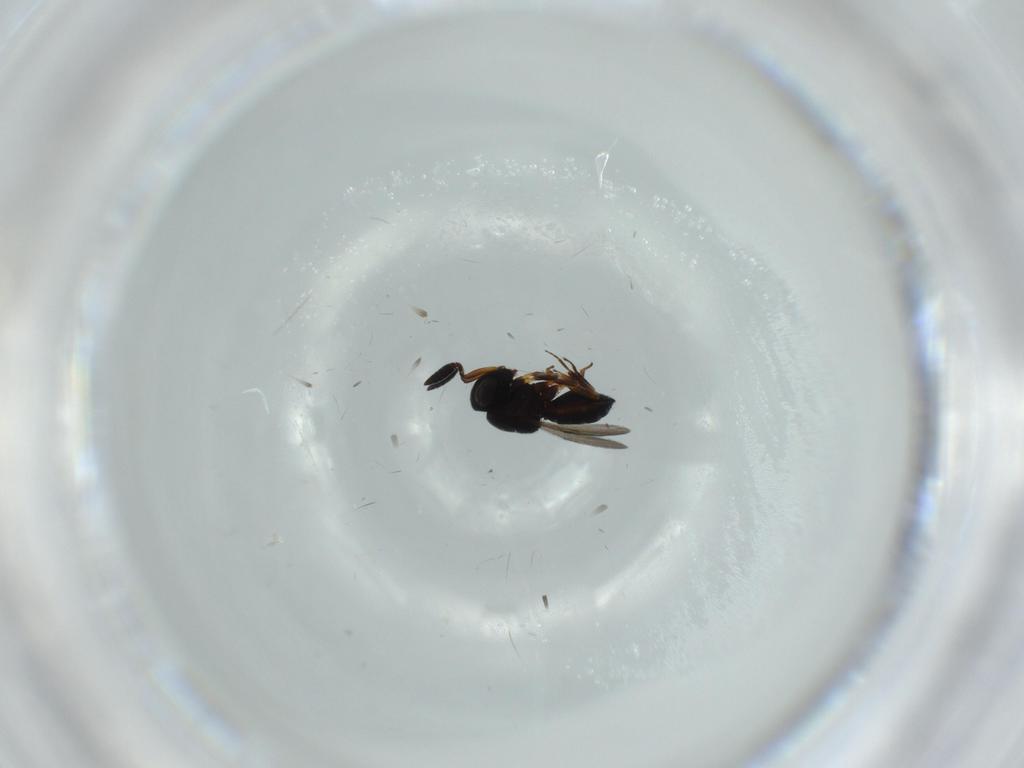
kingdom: Animalia
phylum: Arthropoda
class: Insecta
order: Hymenoptera
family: Scelionidae
